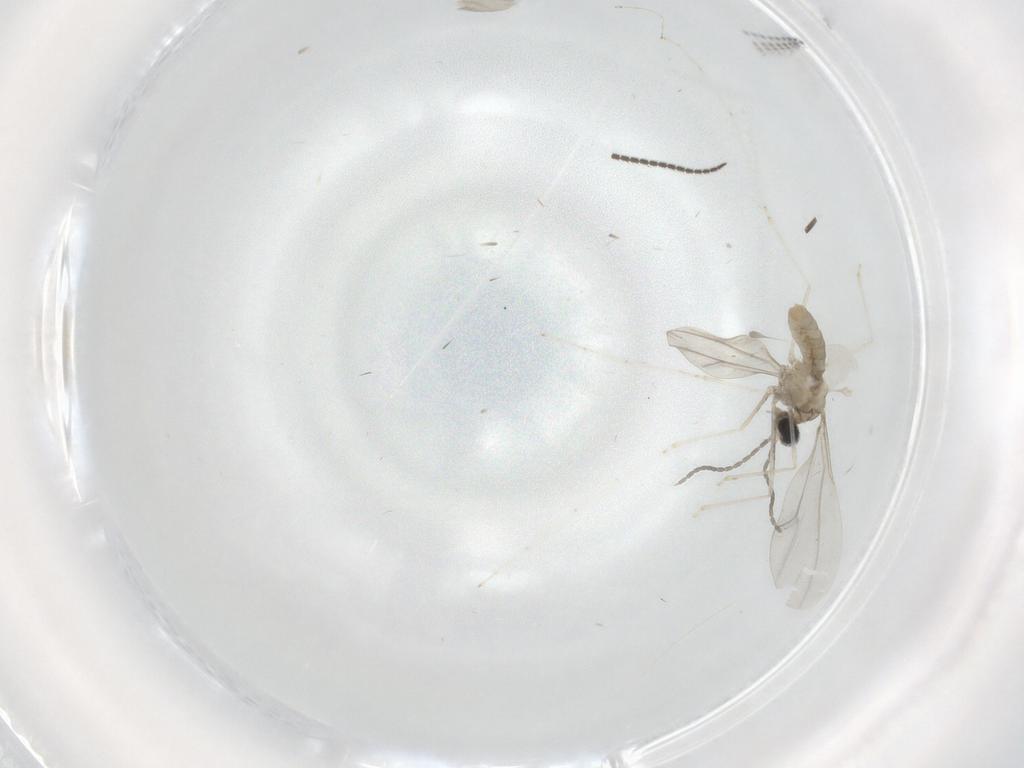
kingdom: Animalia
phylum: Arthropoda
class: Insecta
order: Diptera
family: Cecidomyiidae
